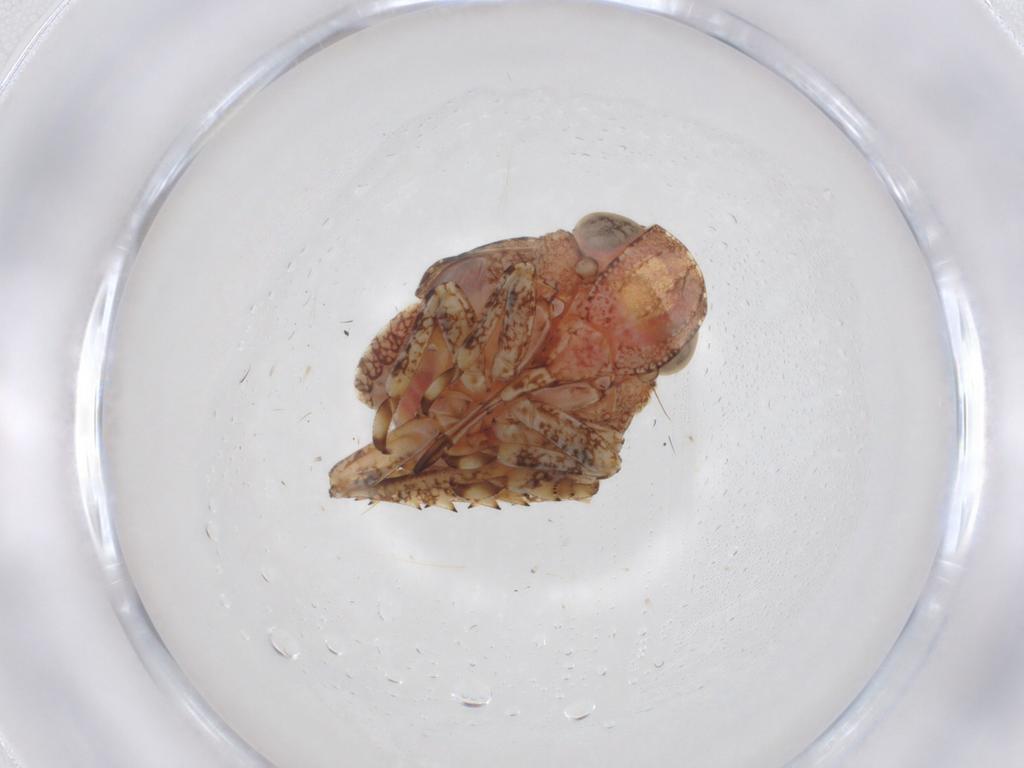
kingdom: Animalia
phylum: Arthropoda
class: Insecta
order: Hemiptera
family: Nogodinidae
